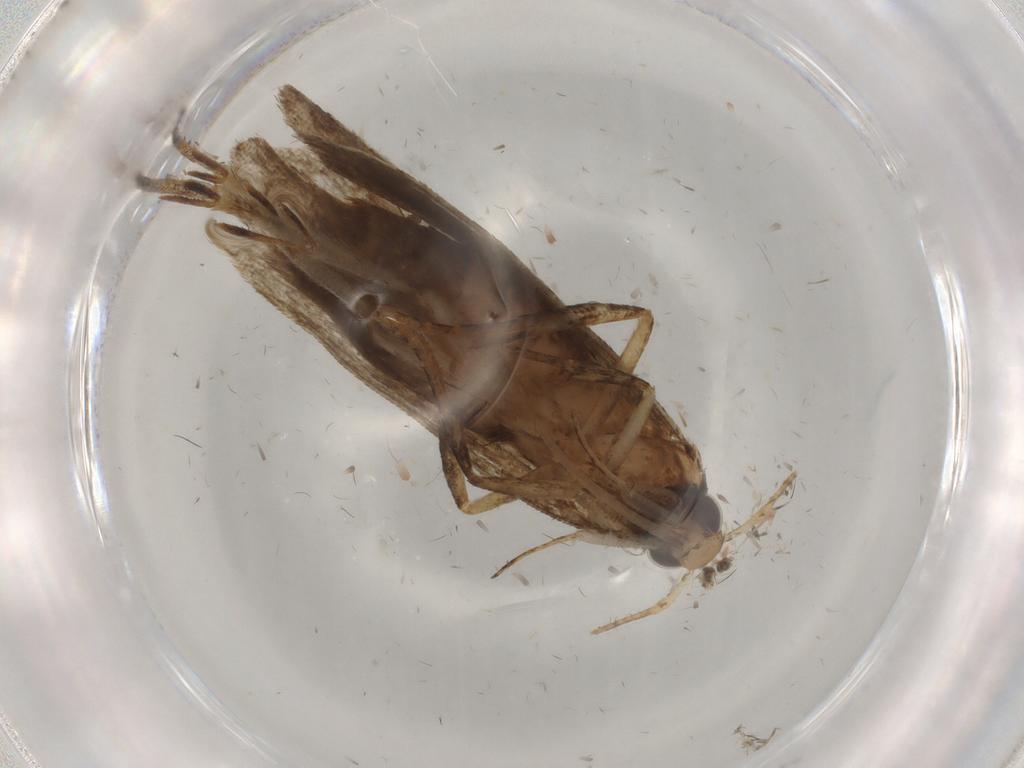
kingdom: Animalia
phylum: Arthropoda
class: Insecta
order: Lepidoptera
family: Cosmopterigidae
